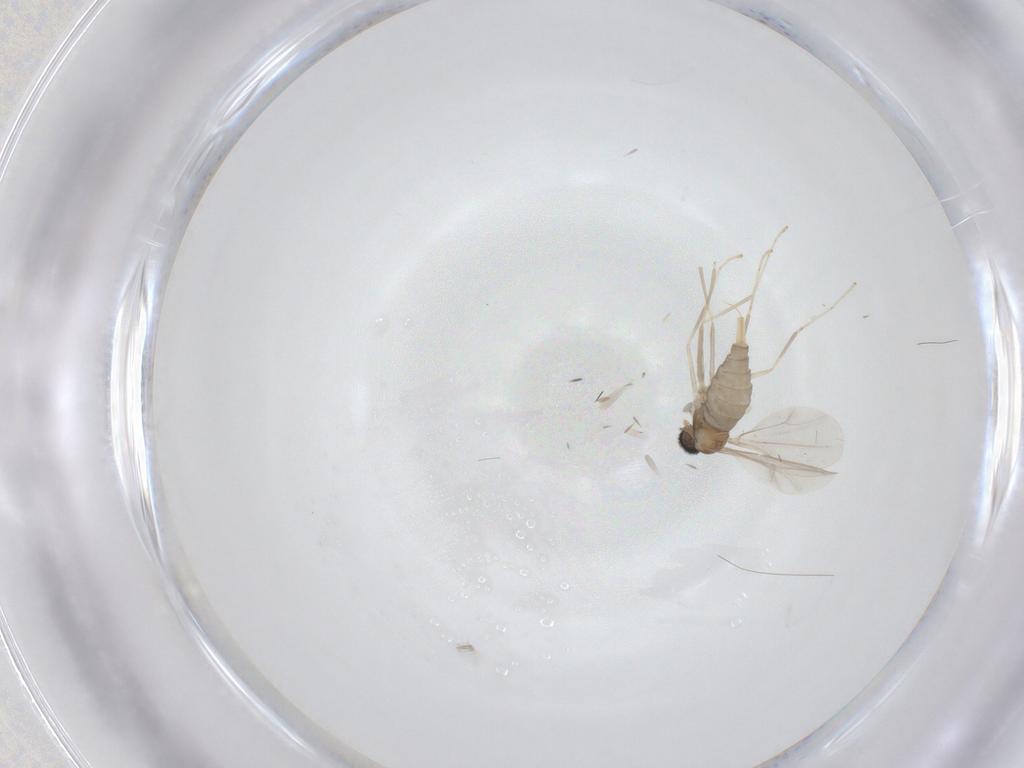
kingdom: Animalia
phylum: Arthropoda
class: Insecta
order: Diptera
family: Cecidomyiidae
